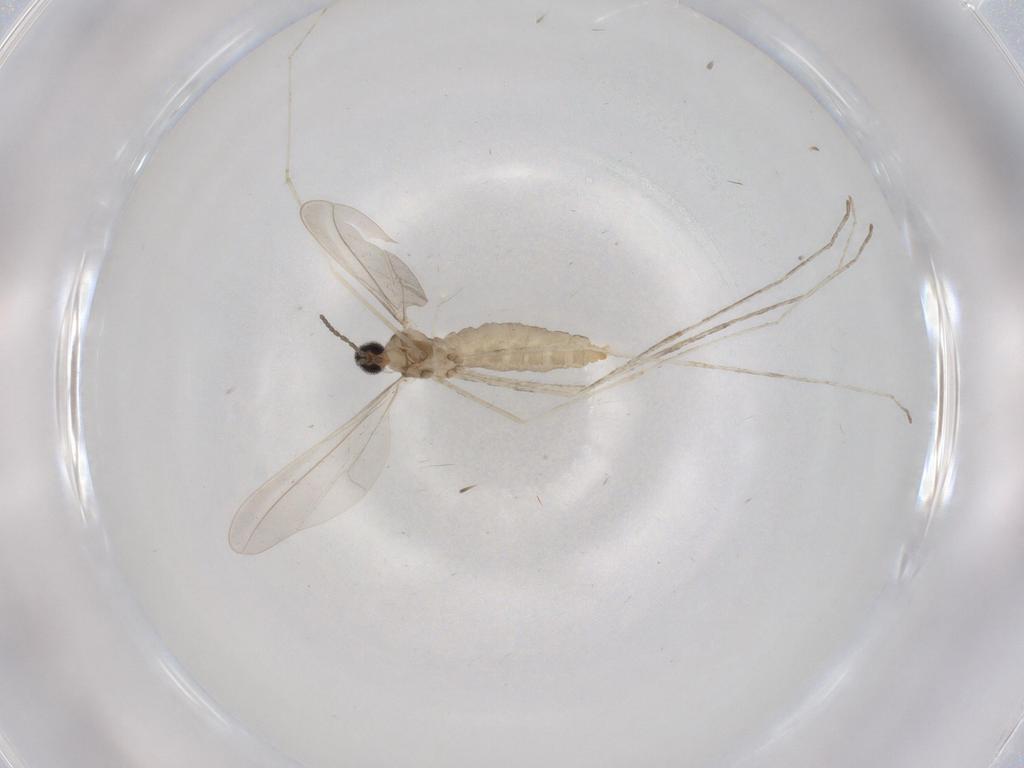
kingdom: Animalia
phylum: Arthropoda
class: Insecta
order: Diptera
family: Cecidomyiidae
